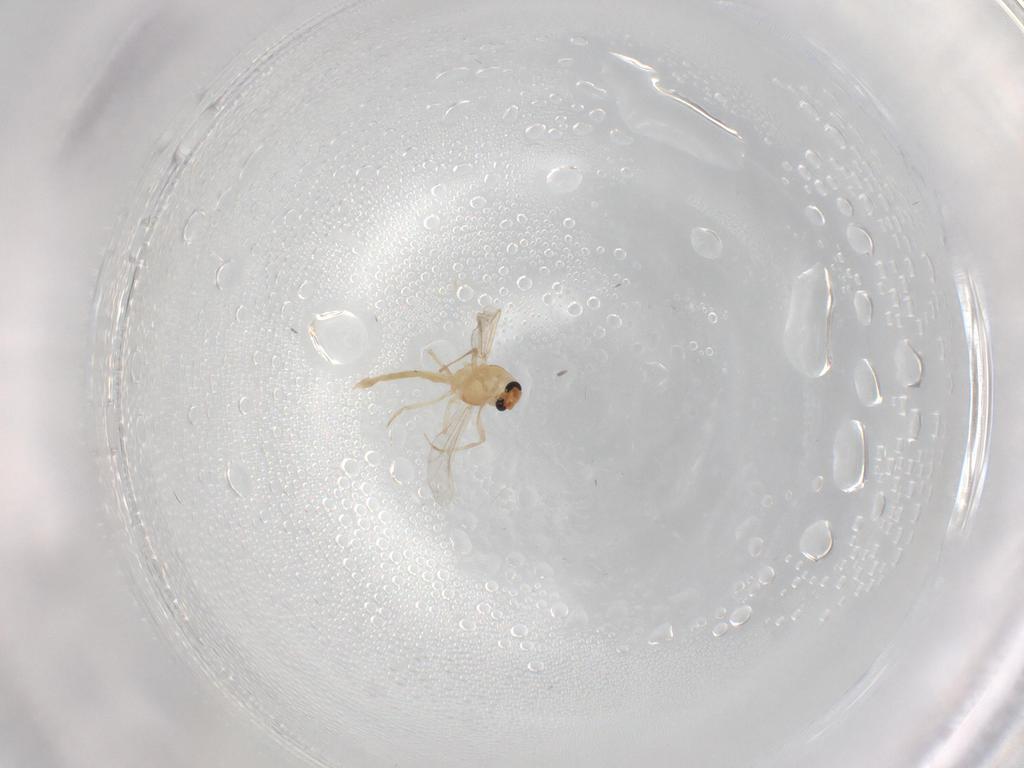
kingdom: Animalia
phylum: Arthropoda
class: Insecta
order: Diptera
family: Chironomidae
